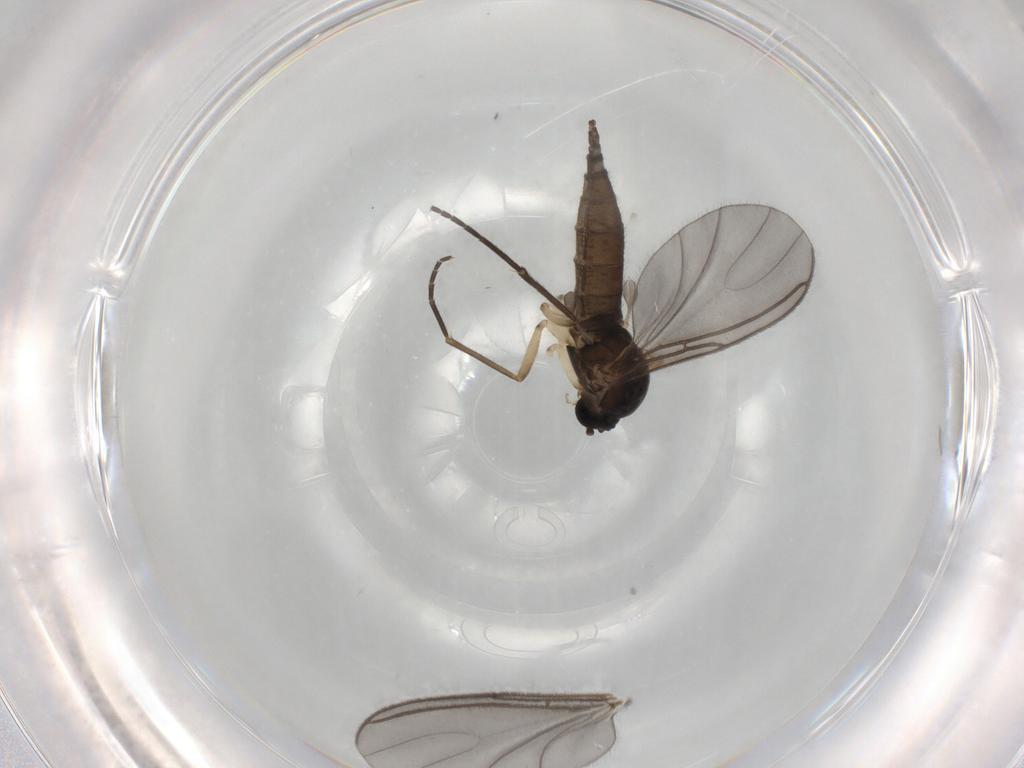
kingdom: Animalia
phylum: Arthropoda
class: Insecta
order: Diptera
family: Sciaridae
